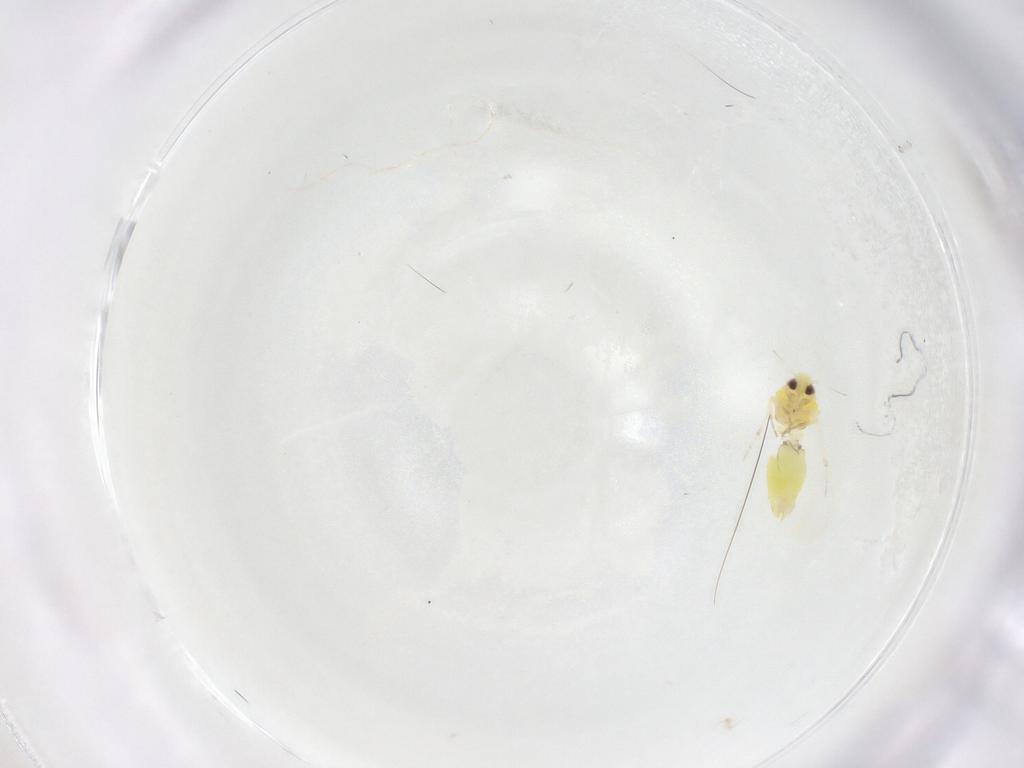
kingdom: Animalia
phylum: Arthropoda
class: Insecta
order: Hemiptera
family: Aleyrodidae
